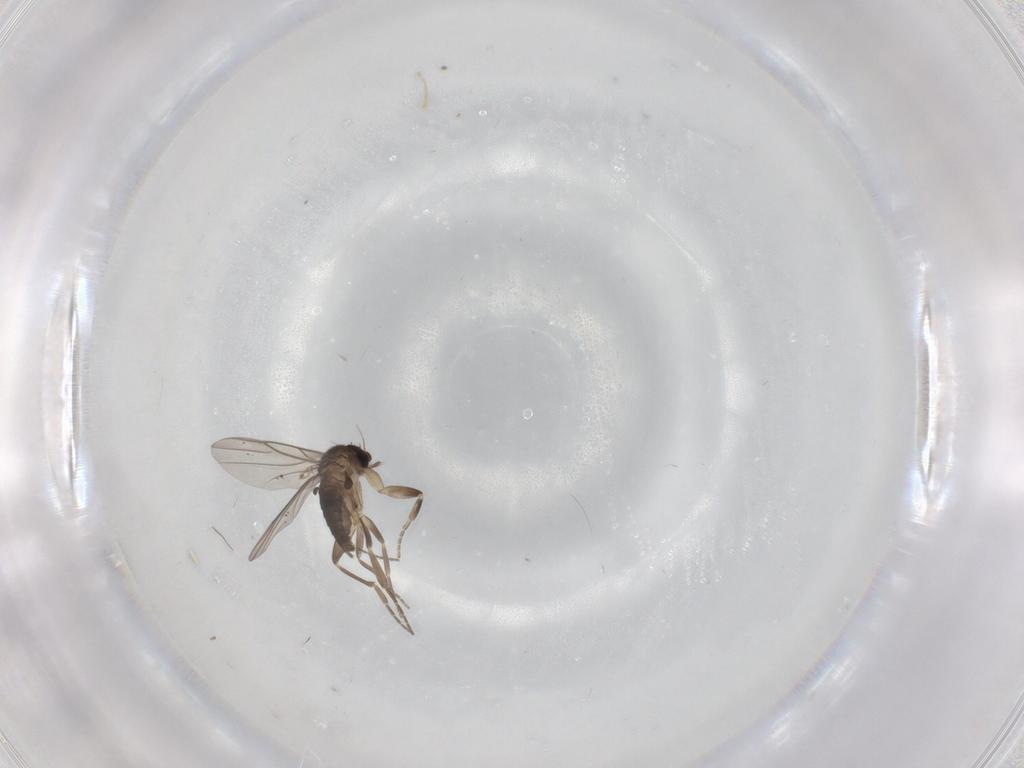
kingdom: Animalia
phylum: Arthropoda
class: Insecta
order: Diptera
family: Cecidomyiidae
